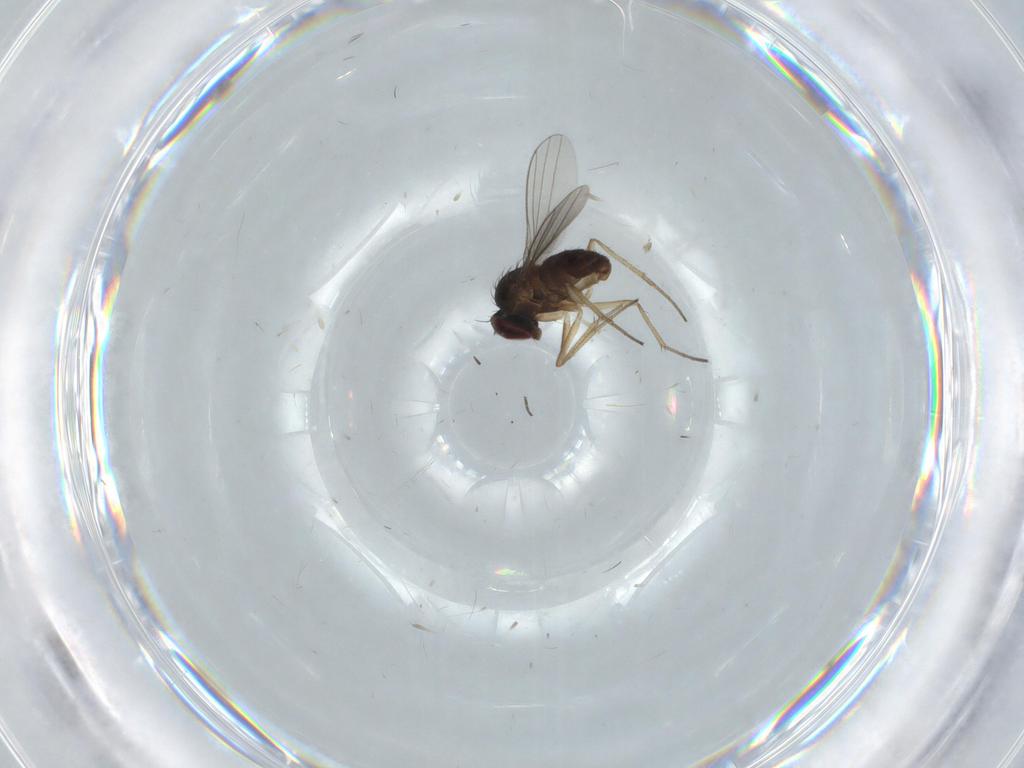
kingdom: Animalia
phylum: Arthropoda
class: Insecta
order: Diptera
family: Dolichopodidae
